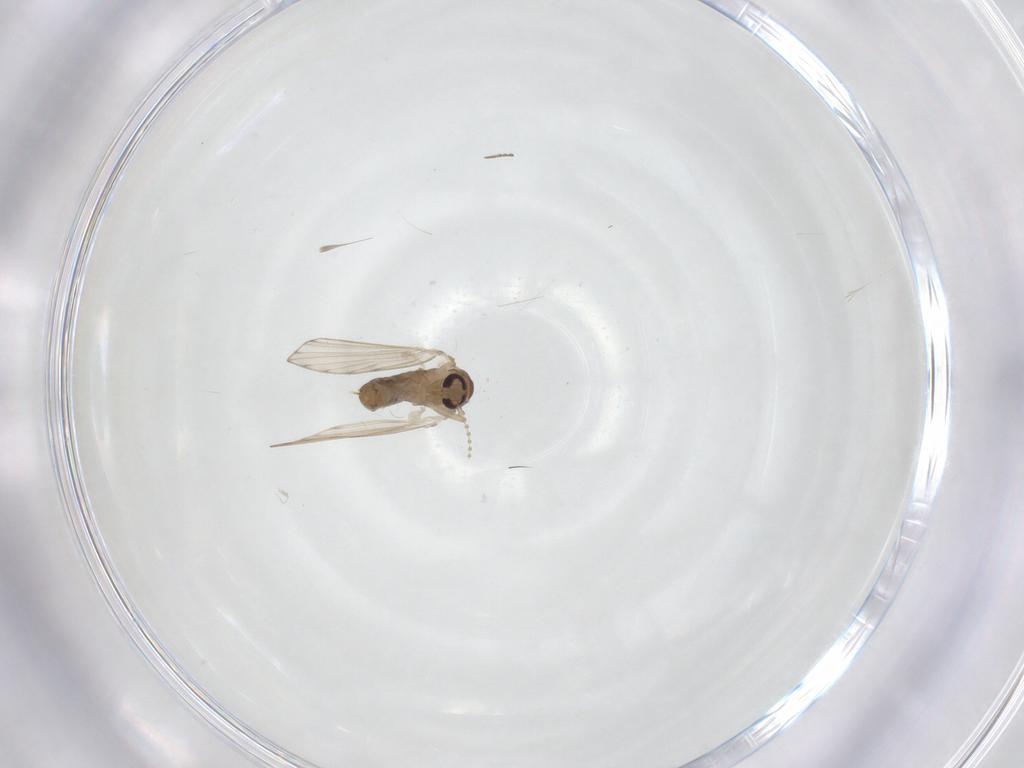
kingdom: Animalia
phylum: Arthropoda
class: Insecta
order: Diptera
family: Psychodidae
